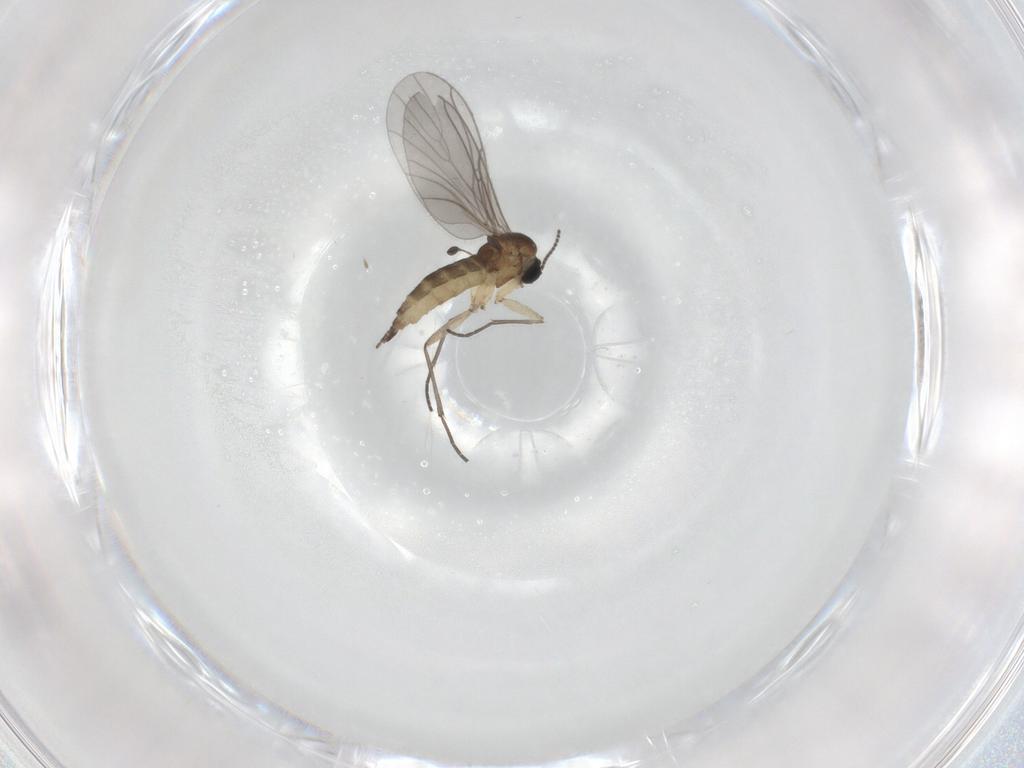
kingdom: Animalia
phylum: Arthropoda
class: Insecta
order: Diptera
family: Sciaridae
